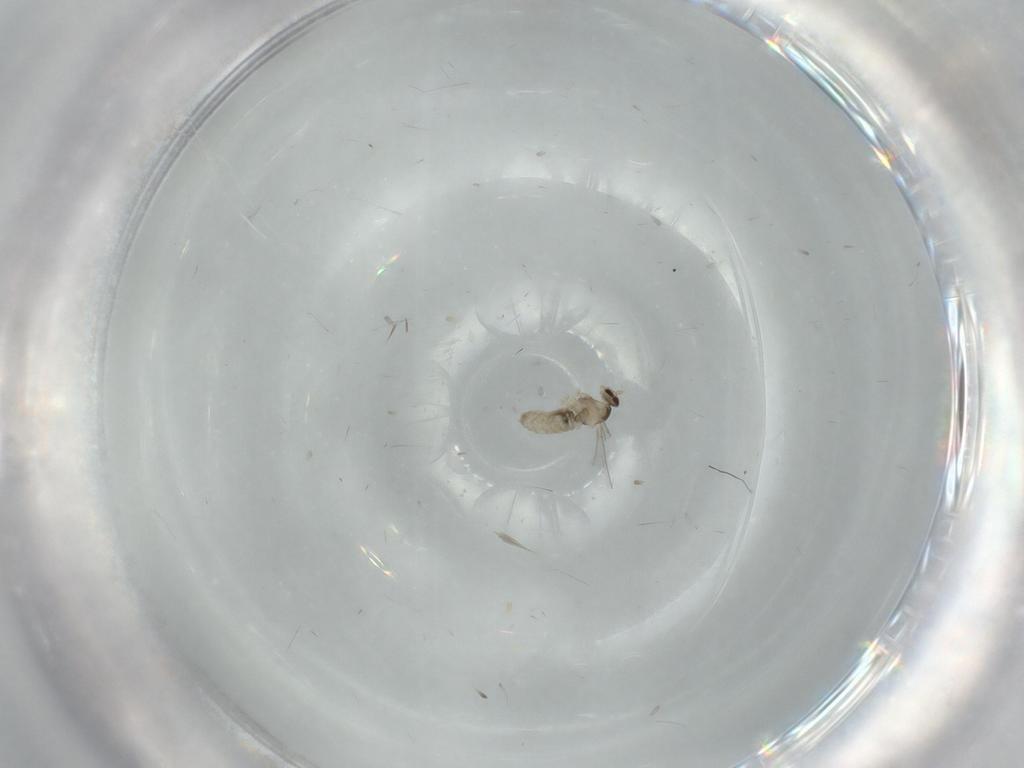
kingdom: Animalia
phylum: Arthropoda
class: Insecta
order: Diptera
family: Cecidomyiidae
